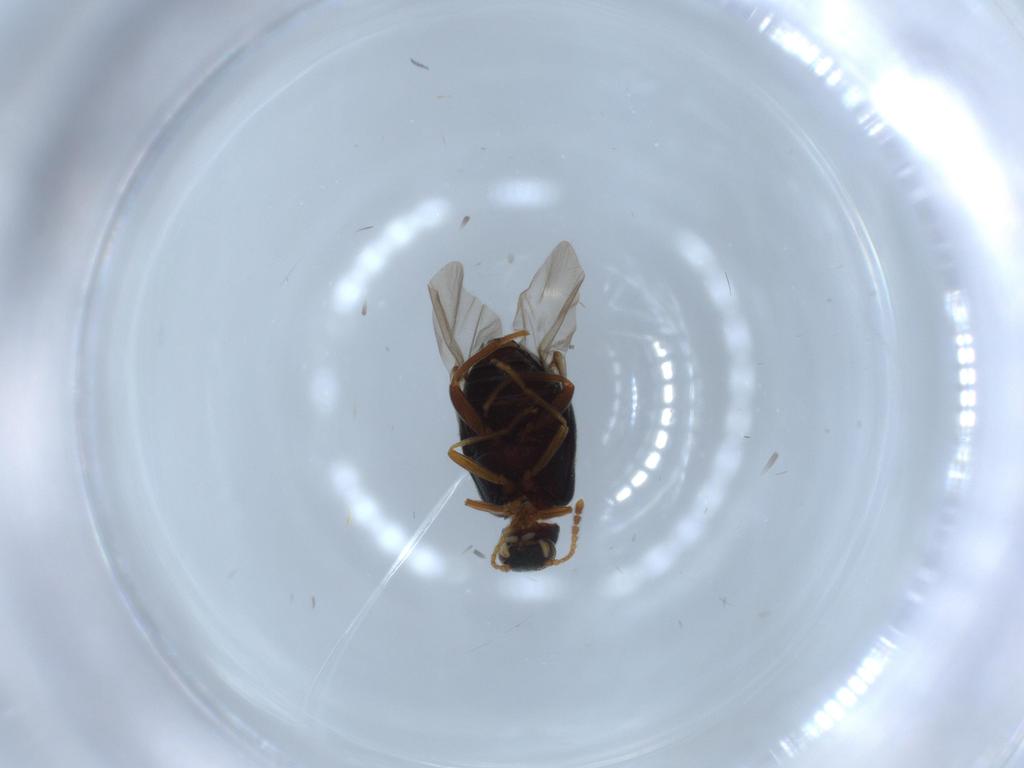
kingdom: Animalia
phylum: Arthropoda
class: Insecta
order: Coleoptera
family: Aderidae
